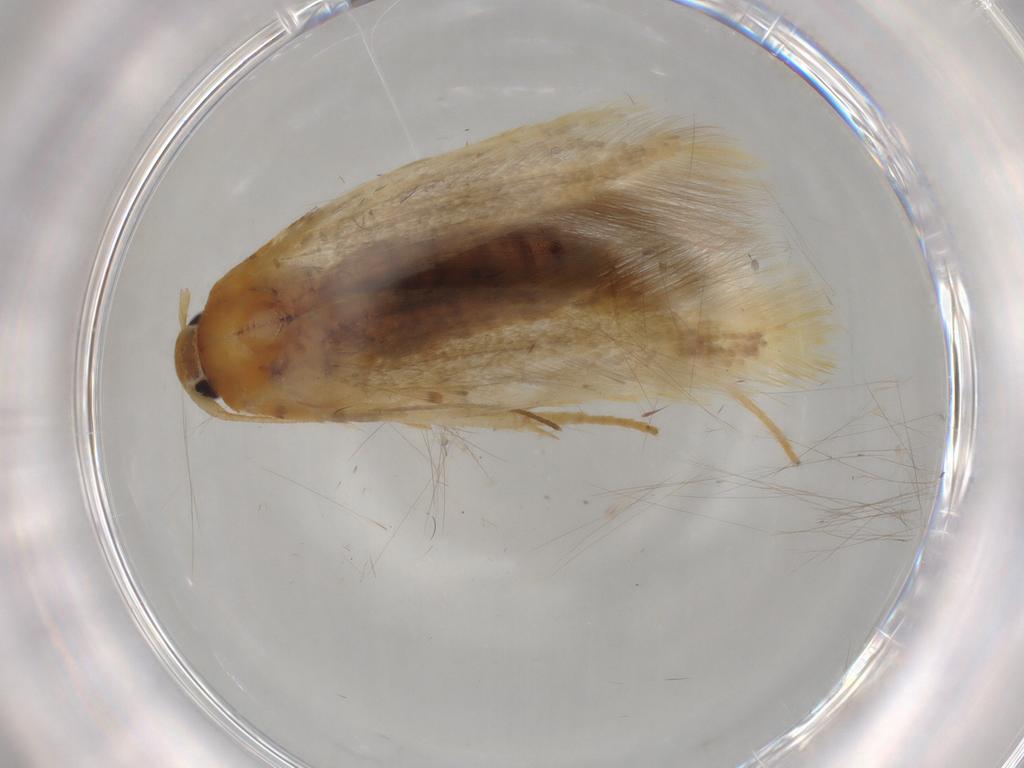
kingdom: Animalia
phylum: Arthropoda
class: Insecta
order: Lepidoptera
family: Oecophoridae
